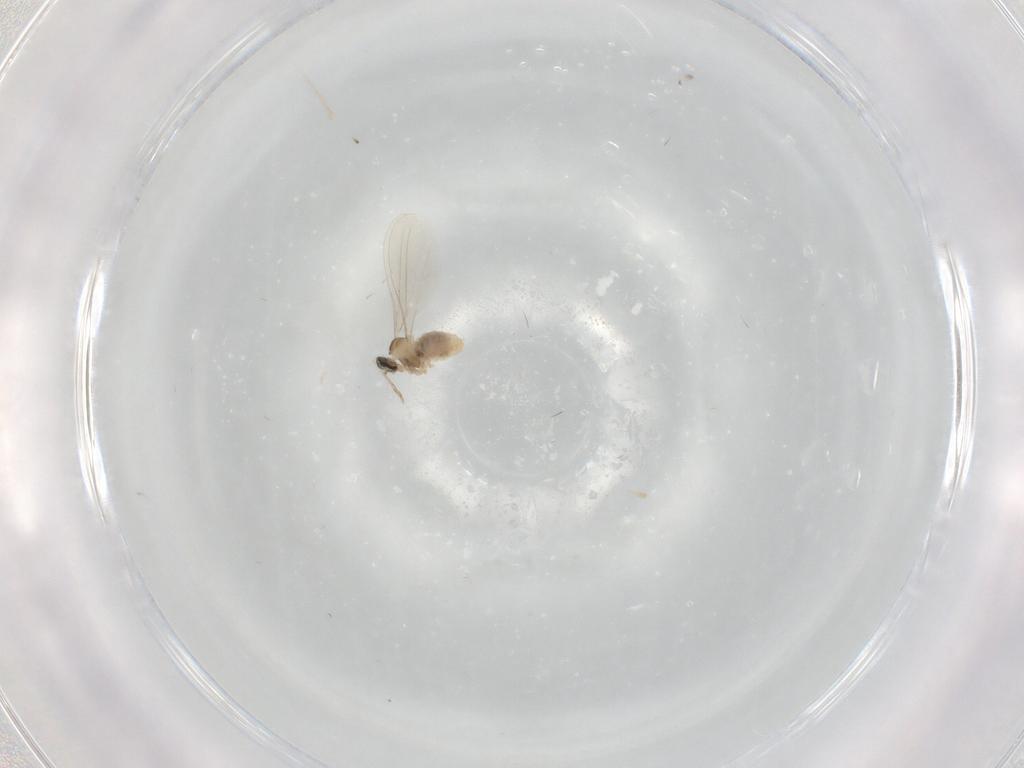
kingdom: Animalia
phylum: Arthropoda
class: Insecta
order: Diptera
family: Cecidomyiidae
